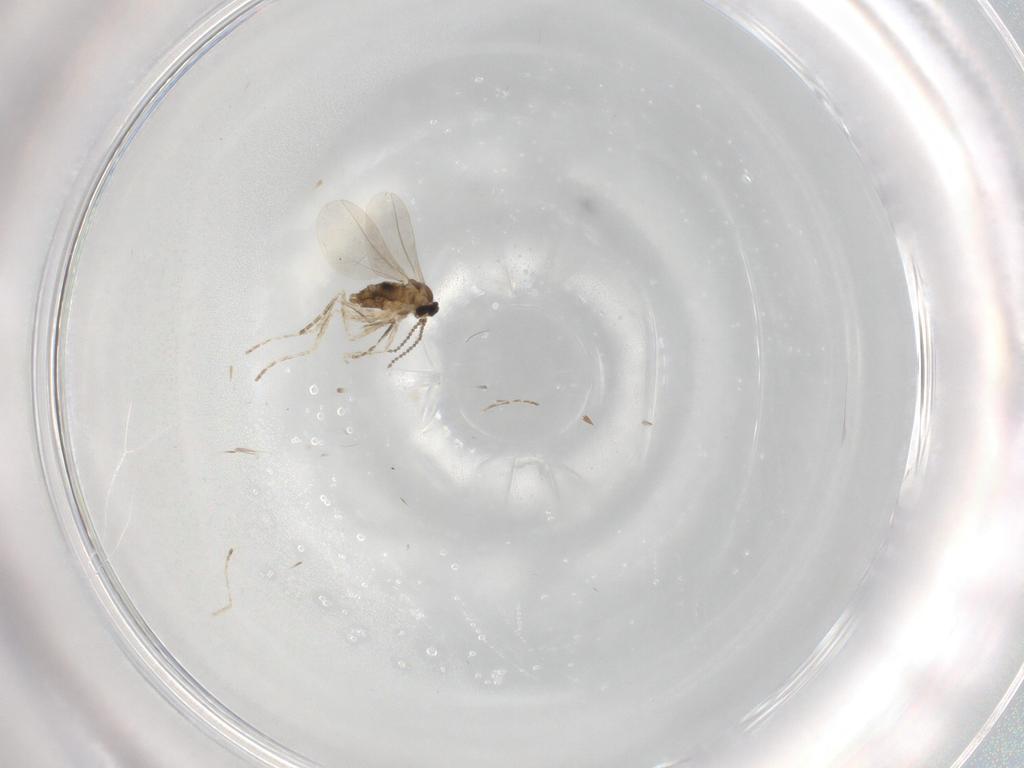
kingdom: Animalia
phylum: Arthropoda
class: Insecta
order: Diptera
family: Cecidomyiidae
